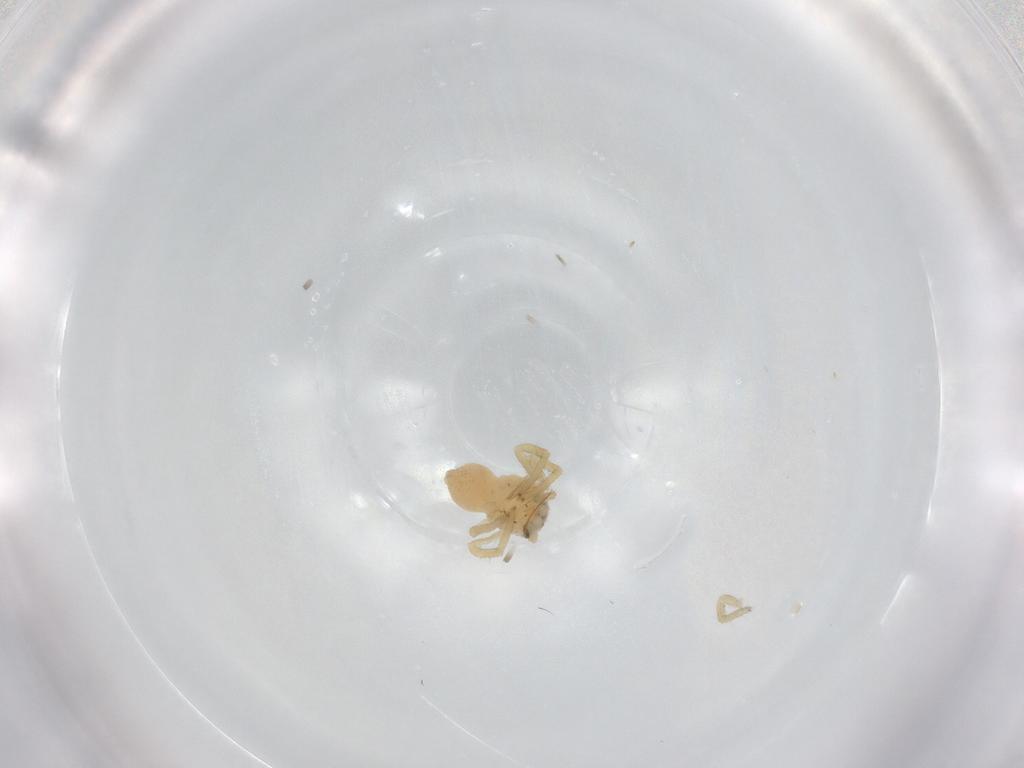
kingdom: Animalia
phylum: Arthropoda
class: Arachnida
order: Araneae
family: Thomisidae
